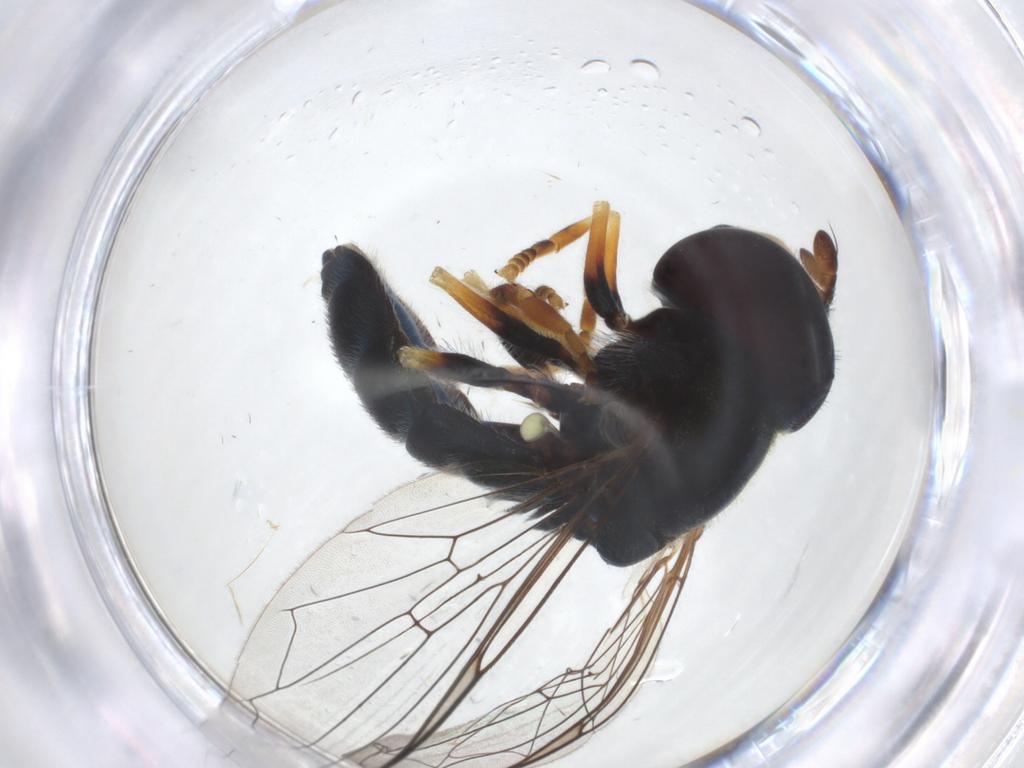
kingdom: Animalia
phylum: Arthropoda
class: Insecta
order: Diptera
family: Syrphidae
